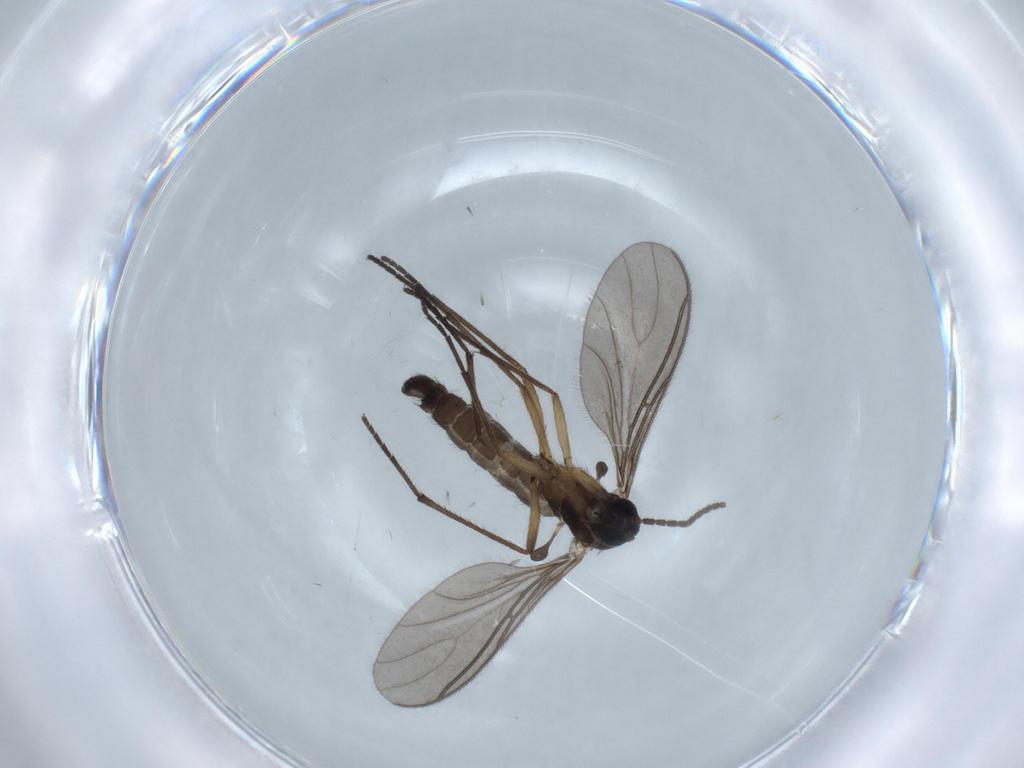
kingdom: Animalia
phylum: Arthropoda
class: Insecta
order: Diptera
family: Sciaridae
